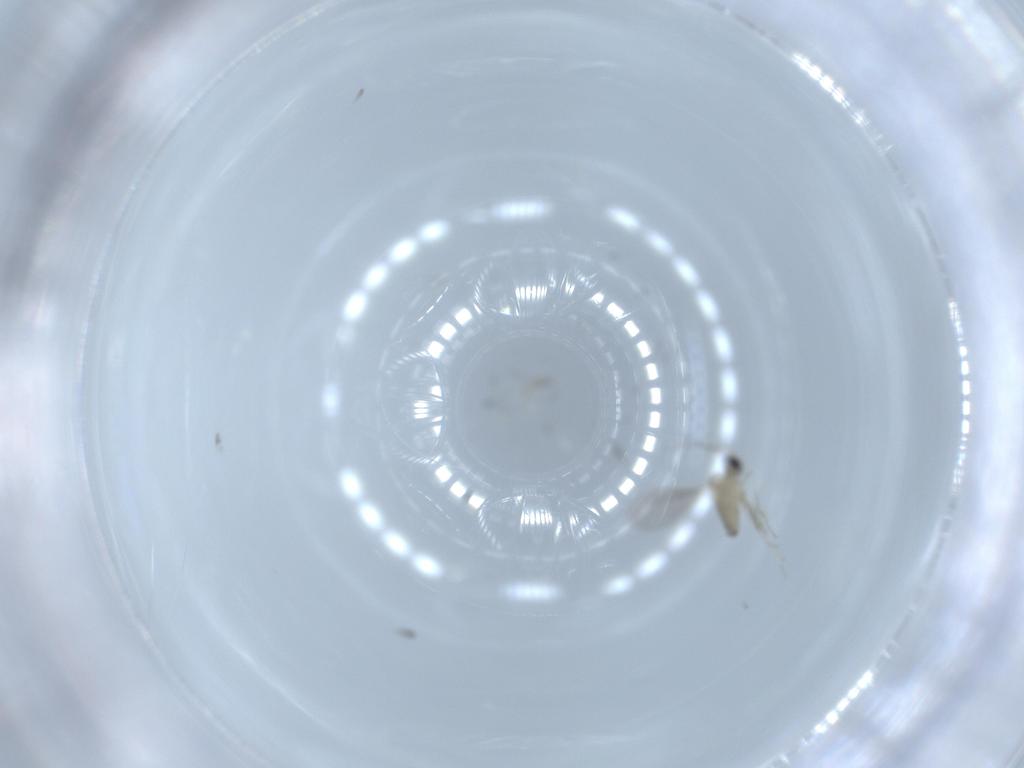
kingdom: Animalia
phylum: Arthropoda
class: Insecta
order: Diptera
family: Cecidomyiidae
